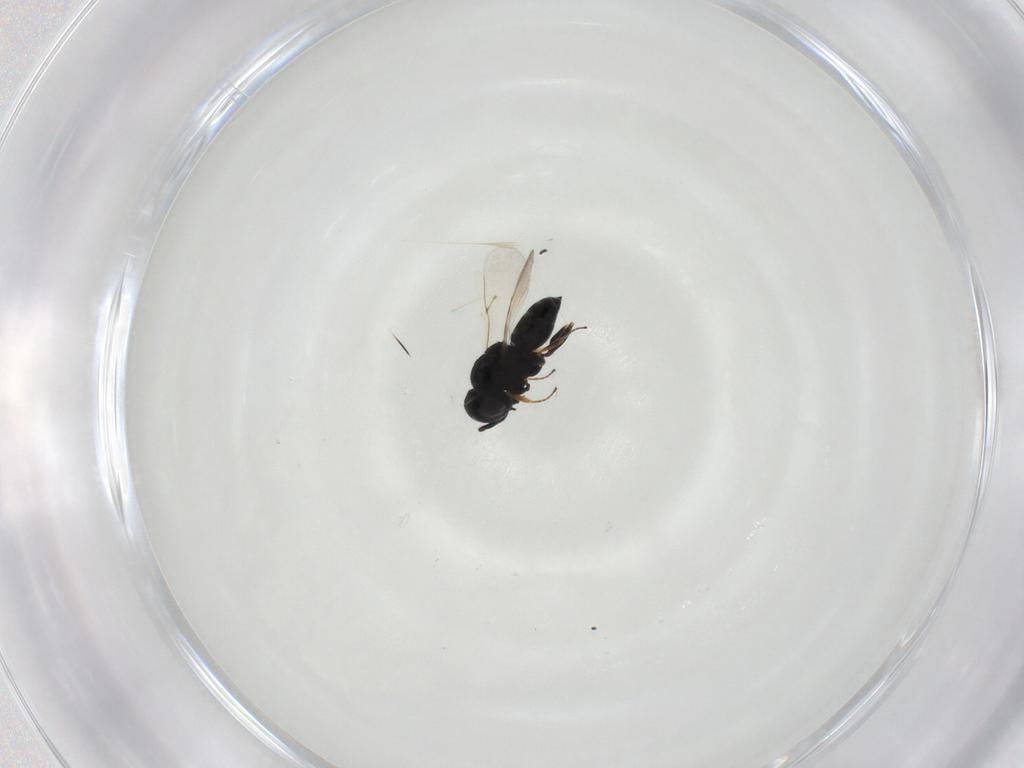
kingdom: Animalia
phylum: Arthropoda
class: Insecta
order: Hymenoptera
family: Scelionidae
